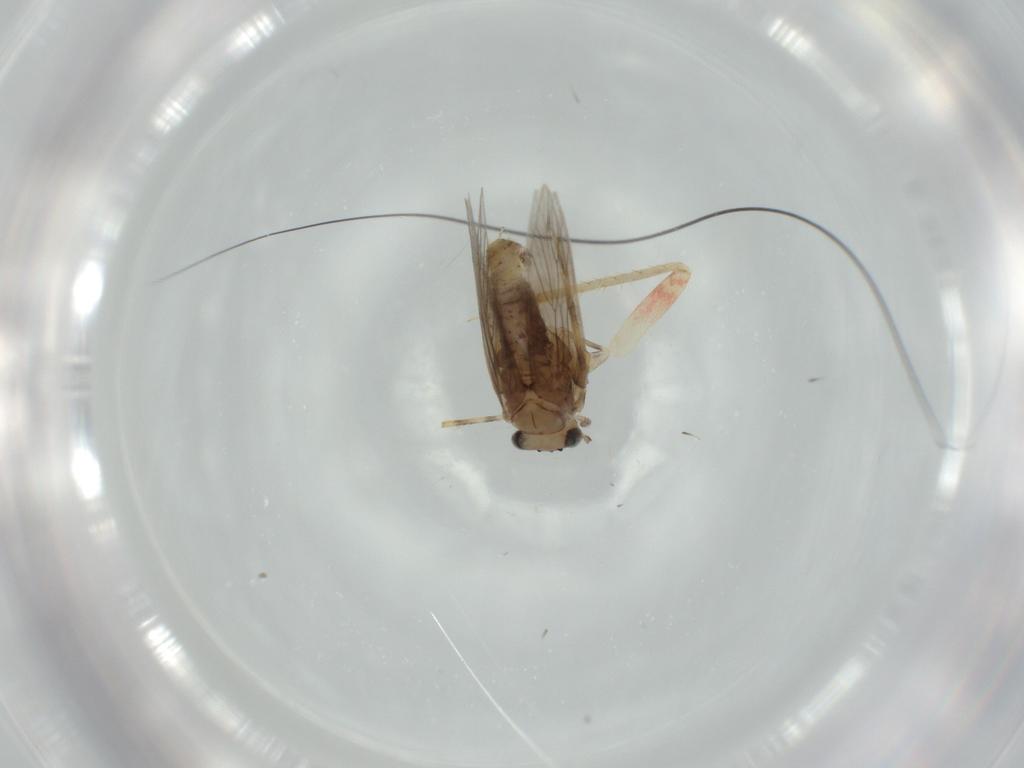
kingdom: Animalia
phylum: Arthropoda
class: Insecta
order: Psocodea
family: Lepidopsocidae
